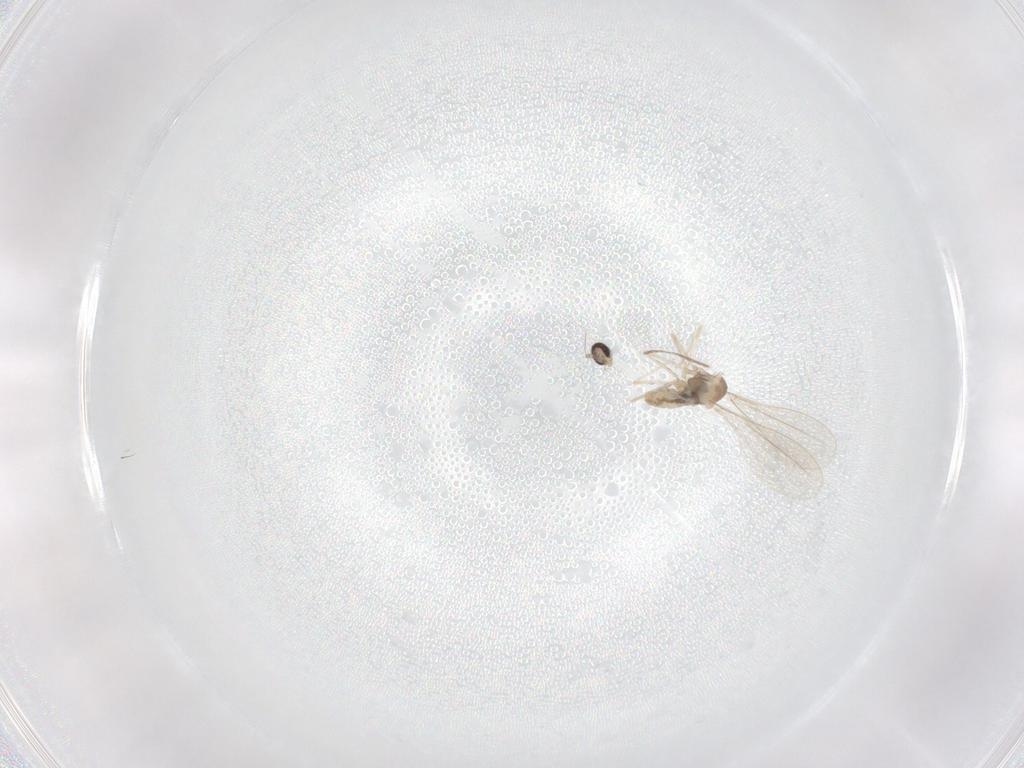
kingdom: Animalia
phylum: Arthropoda
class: Insecta
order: Diptera
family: Cecidomyiidae
